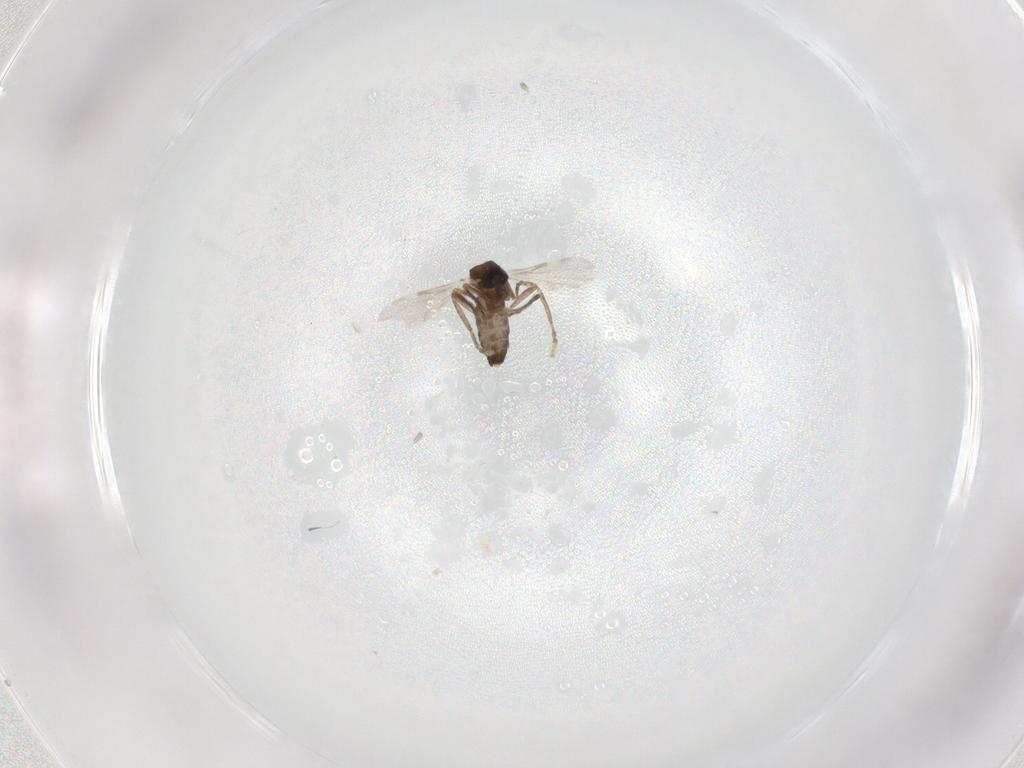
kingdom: Animalia
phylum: Arthropoda
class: Insecta
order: Diptera
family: Ceratopogonidae
